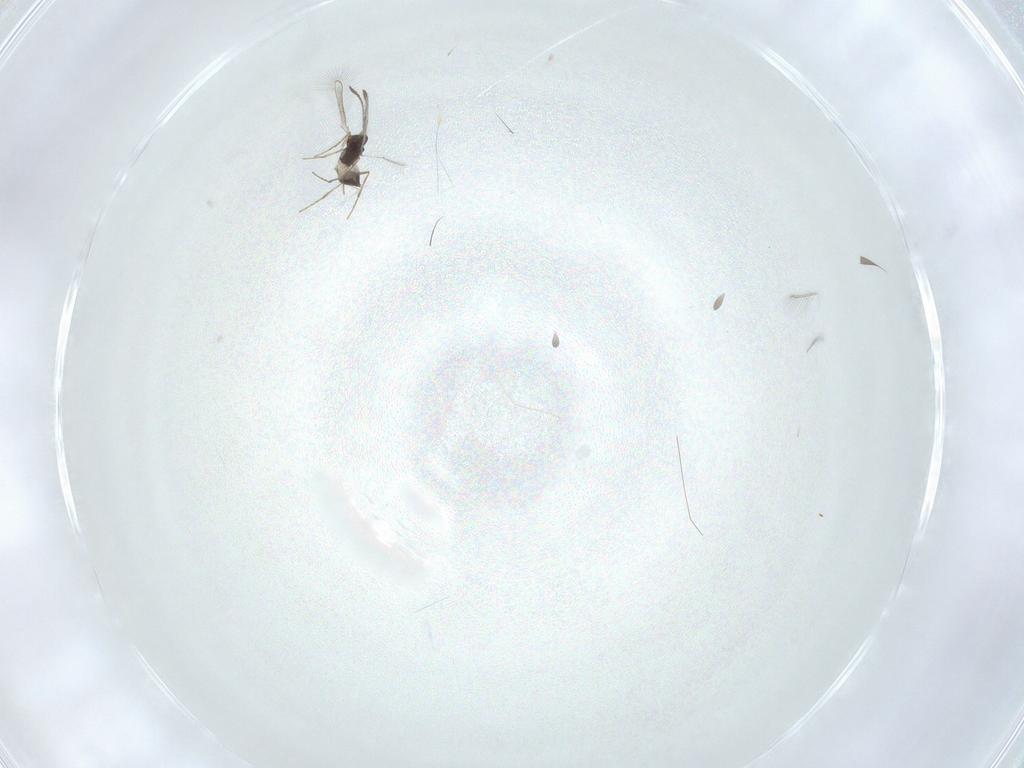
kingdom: Animalia
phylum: Arthropoda
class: Insecta
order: Hymenoptera
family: Mymaridae
